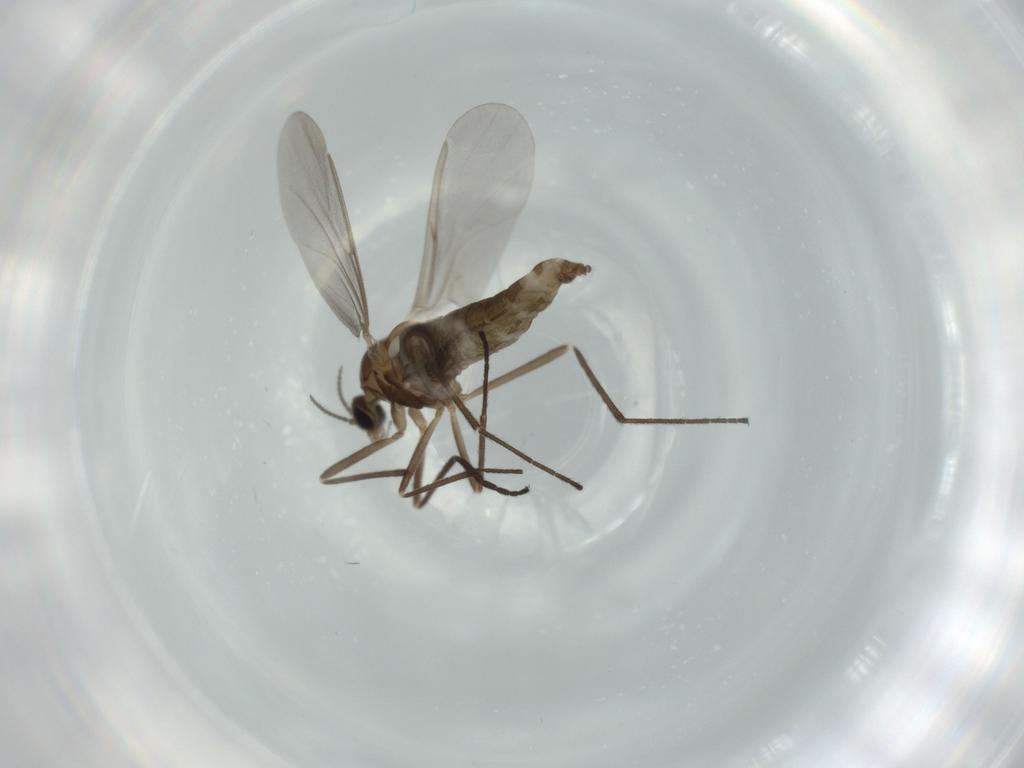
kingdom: Animalia
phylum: Arthropoda
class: Insecta
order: Diptera
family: Cecidomyiidae
